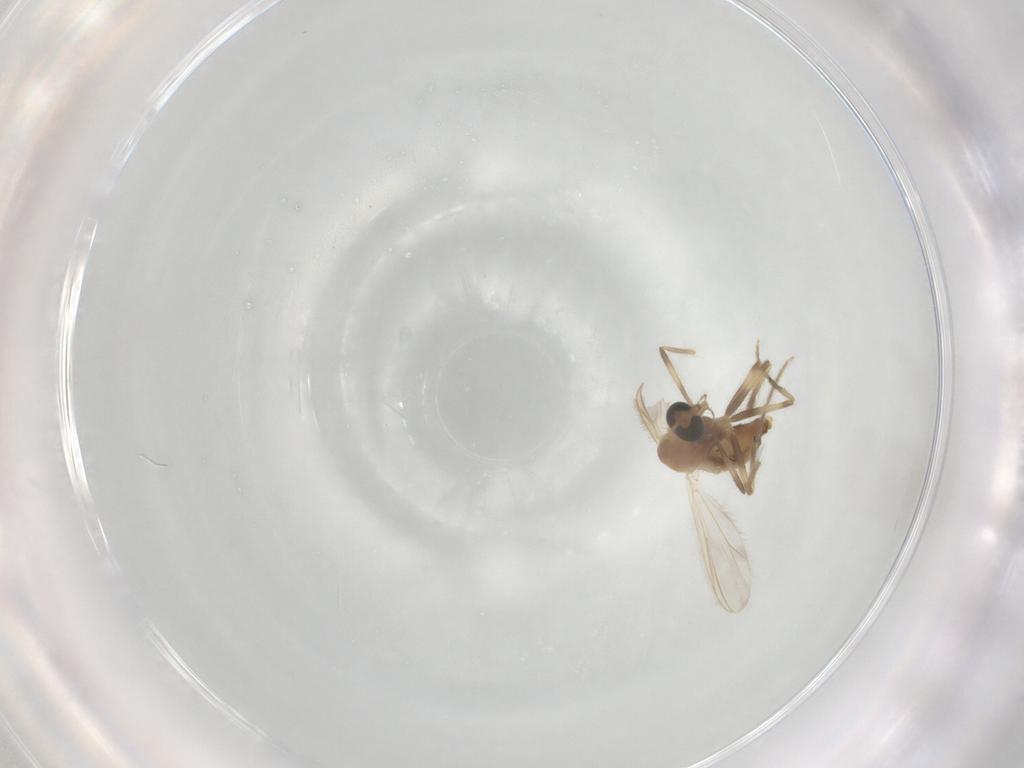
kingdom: Animalia
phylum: Arthropoda
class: Insecta
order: Diptera
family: Chironomidae
